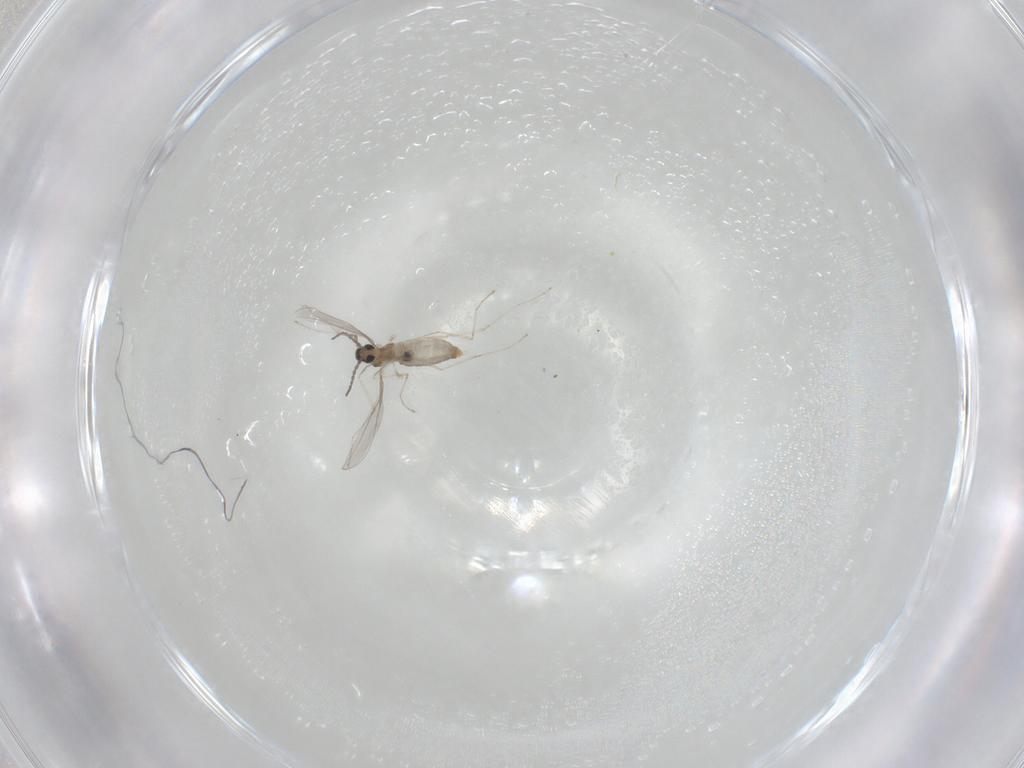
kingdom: Animalia
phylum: Arthropoda
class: Insecta
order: Diptera
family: Cecidomyiidae
